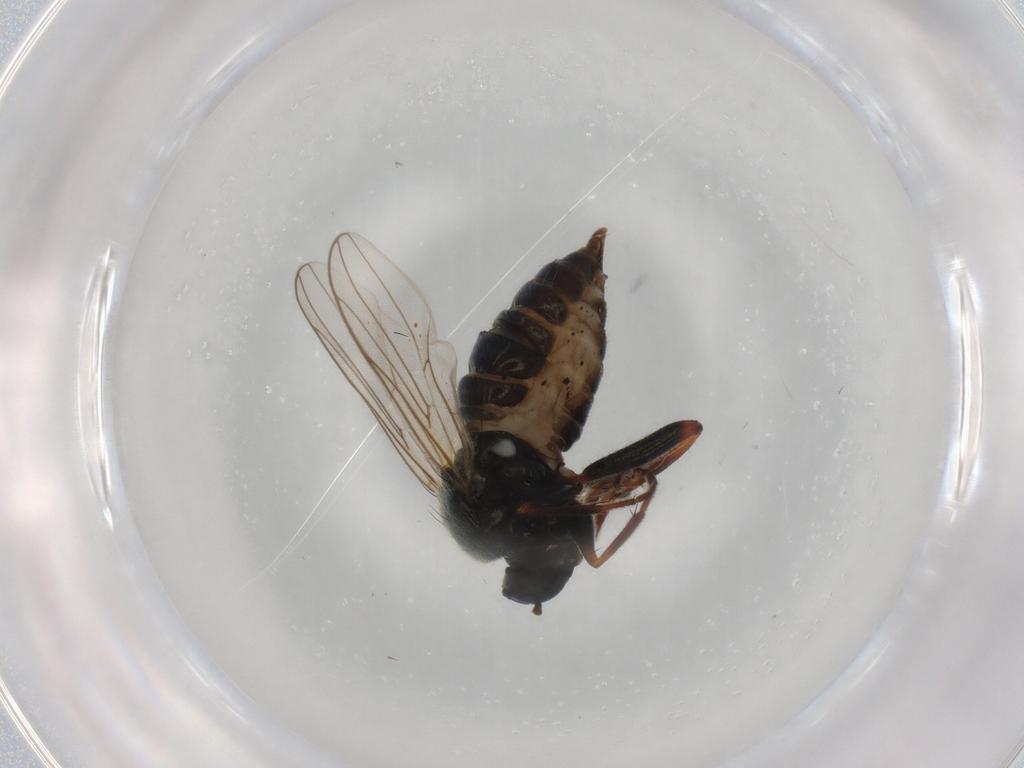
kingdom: Animalia
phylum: Arthropoda
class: Insecta
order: Diptera
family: Hybotidae
